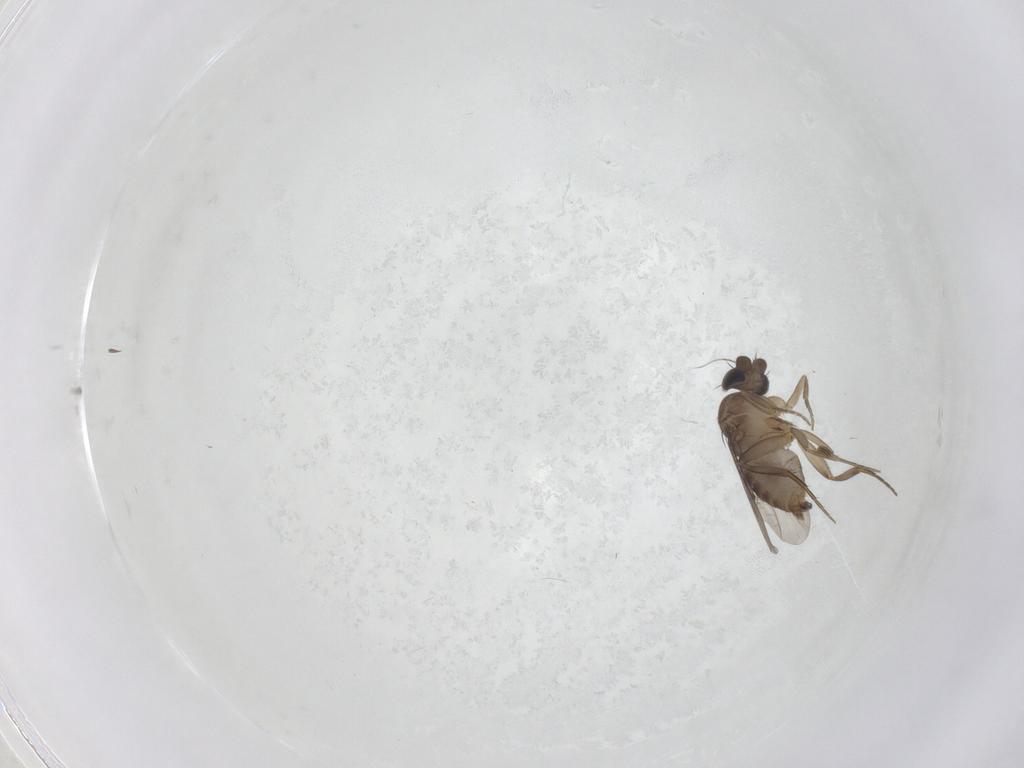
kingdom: Animalia
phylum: Arthropoda
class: Insecta
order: Diptera
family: Phoridae
